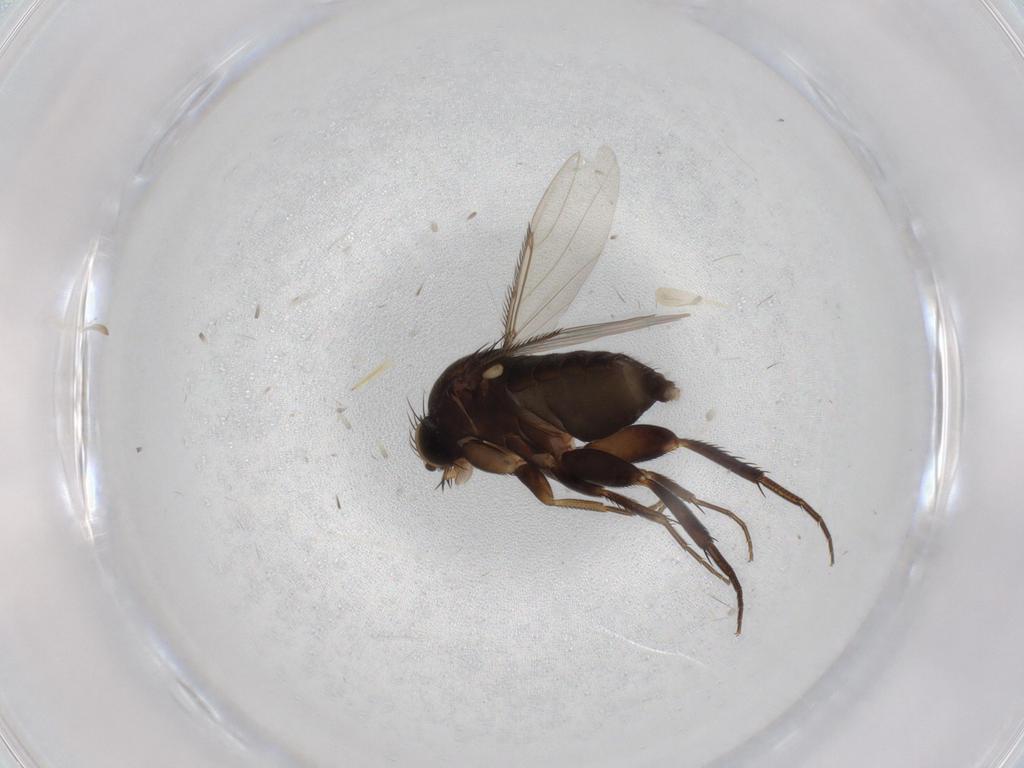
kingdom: Animalia
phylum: Arthropoda
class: Insecta
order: Diptera
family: Phoridae
